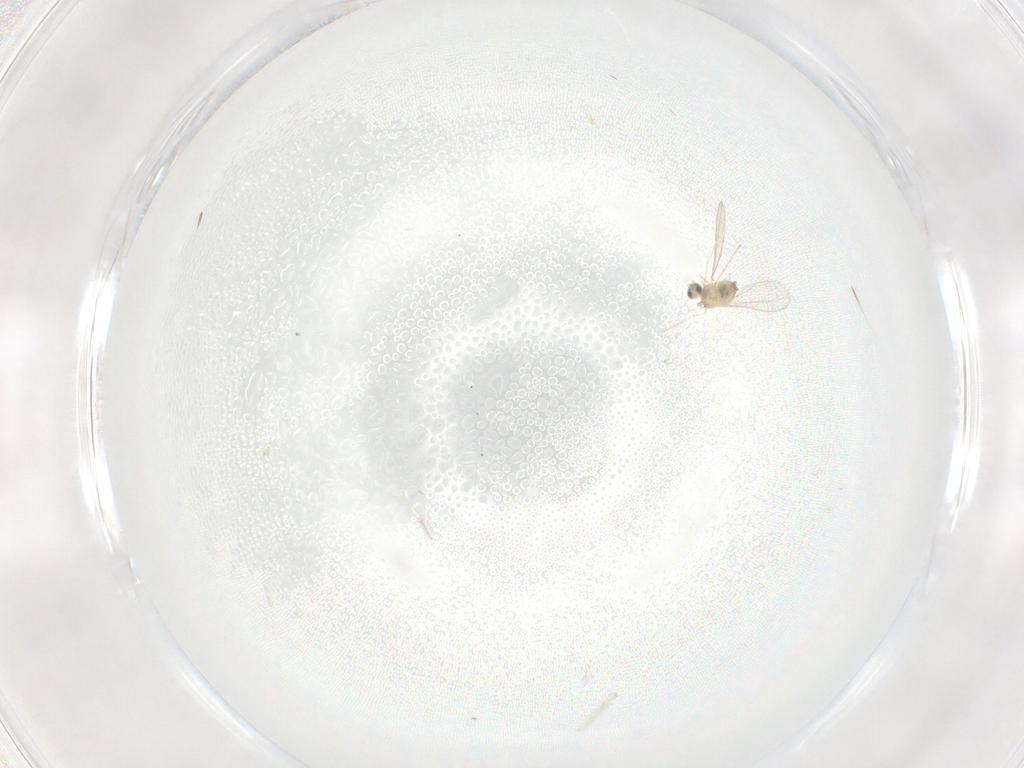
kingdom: Animalia
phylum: Arthropoda
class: Insecta
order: Diptera
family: Cecidomyiidae
